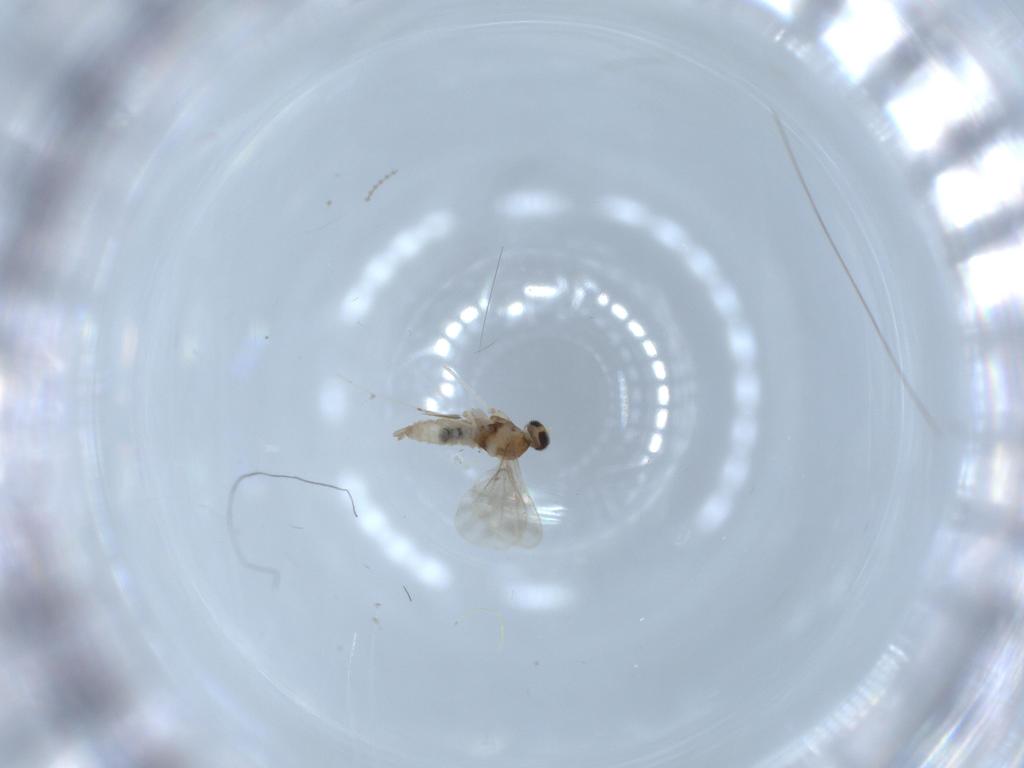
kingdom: Animalia
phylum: Arthropoda
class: Insecta
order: Diptera
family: Cecidomyiidae
